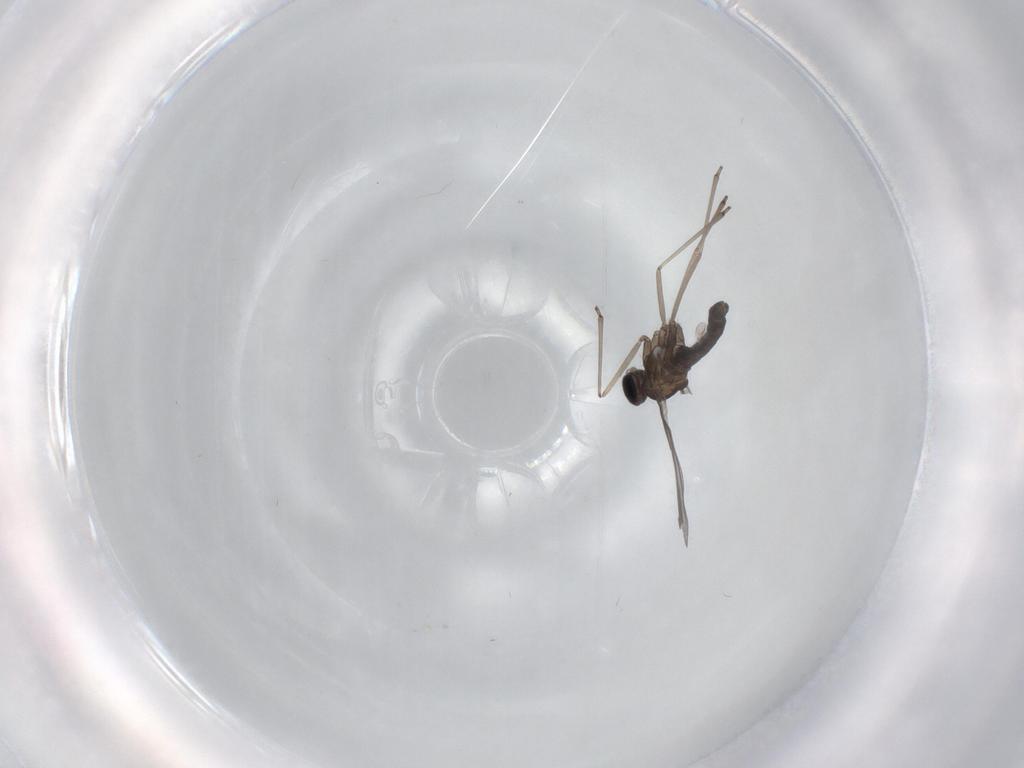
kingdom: Animalia
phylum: Arthropoda
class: Insecta
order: Diptera
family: Cecidomyiidae
